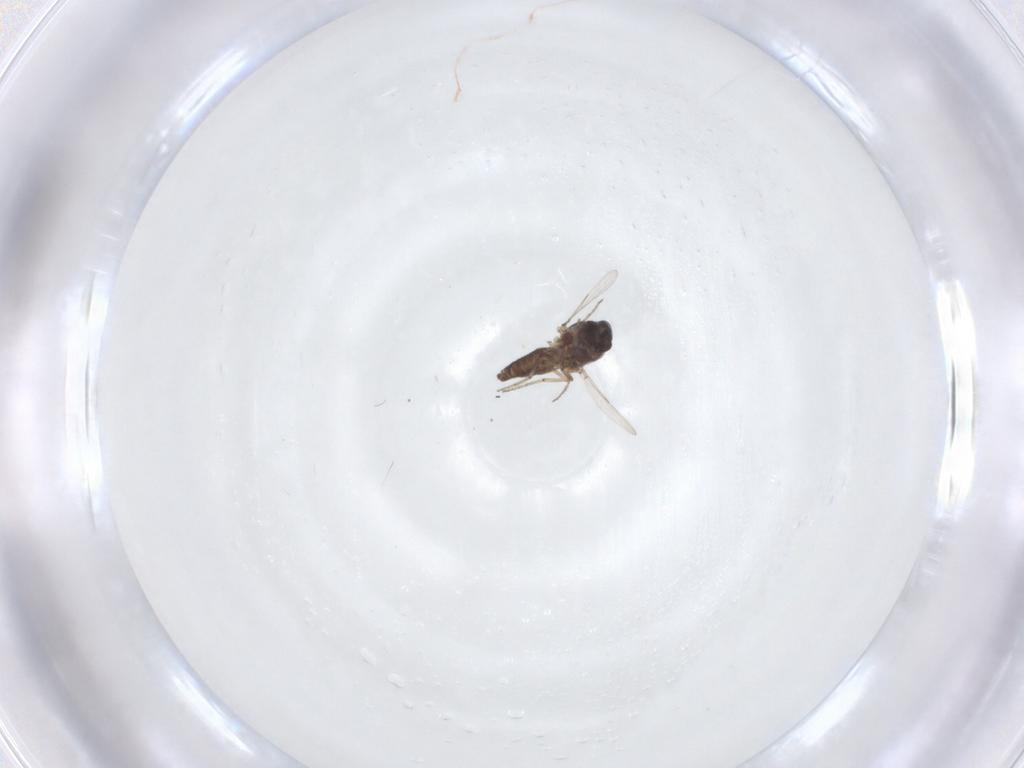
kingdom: Animalia
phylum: Arthropoda
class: Insecta
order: Diptera
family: Ceratopogonidae
